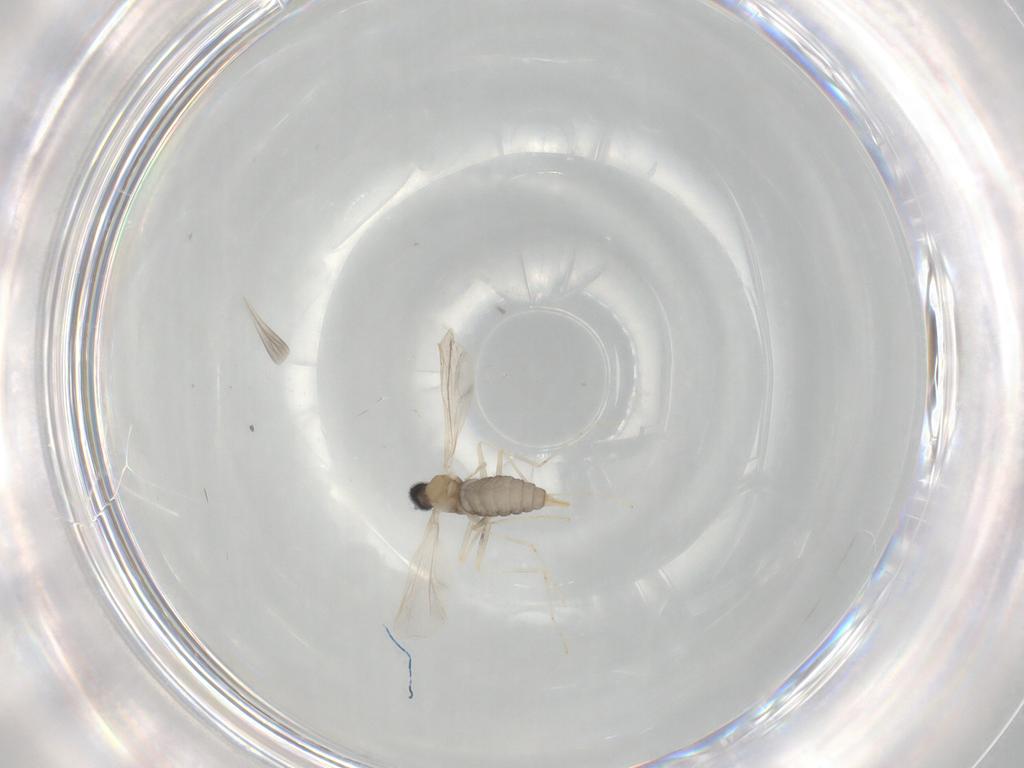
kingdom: Animalia
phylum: Arthropoda
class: Insecta
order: Diptera
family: Cecidomyiidae
